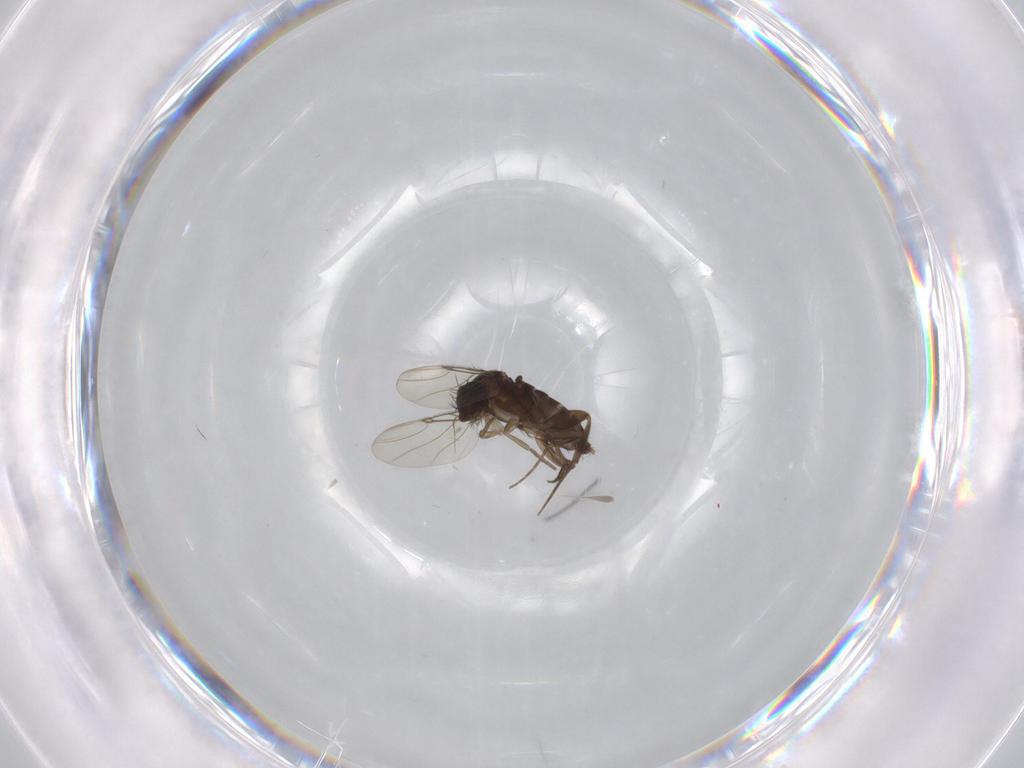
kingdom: Animalia
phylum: Arthropoda
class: Insecta
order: Diptera
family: Phoridae
